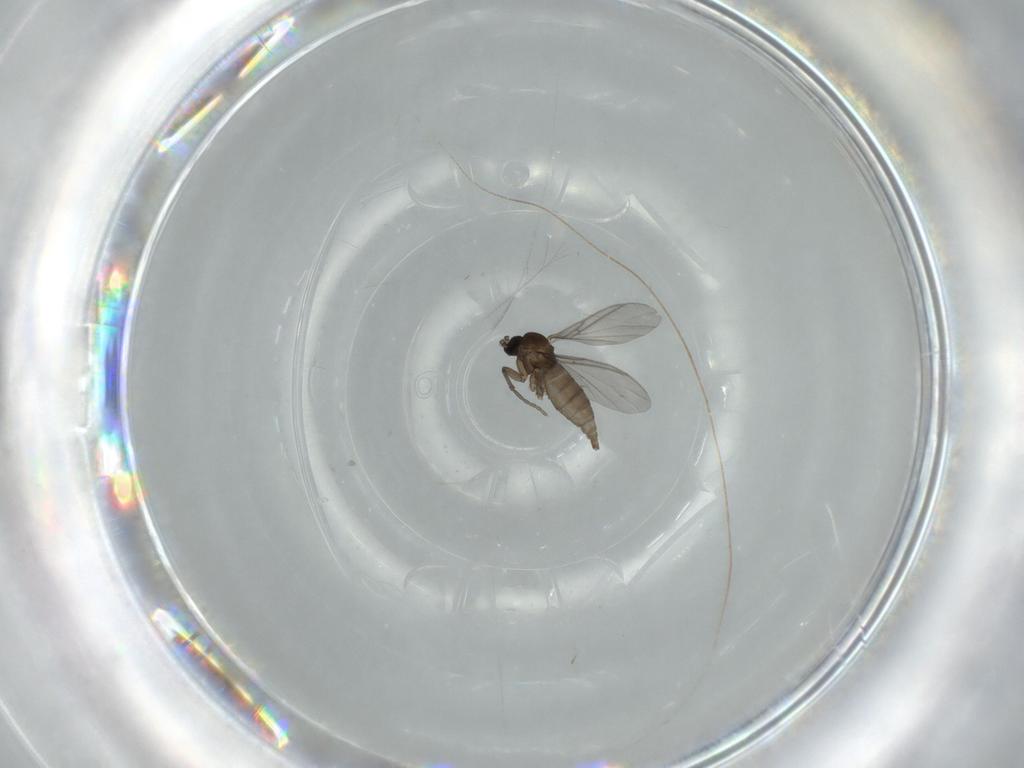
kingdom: Animalia
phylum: Arthropoda
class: Insecta
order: Diptera
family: Sciaridae
